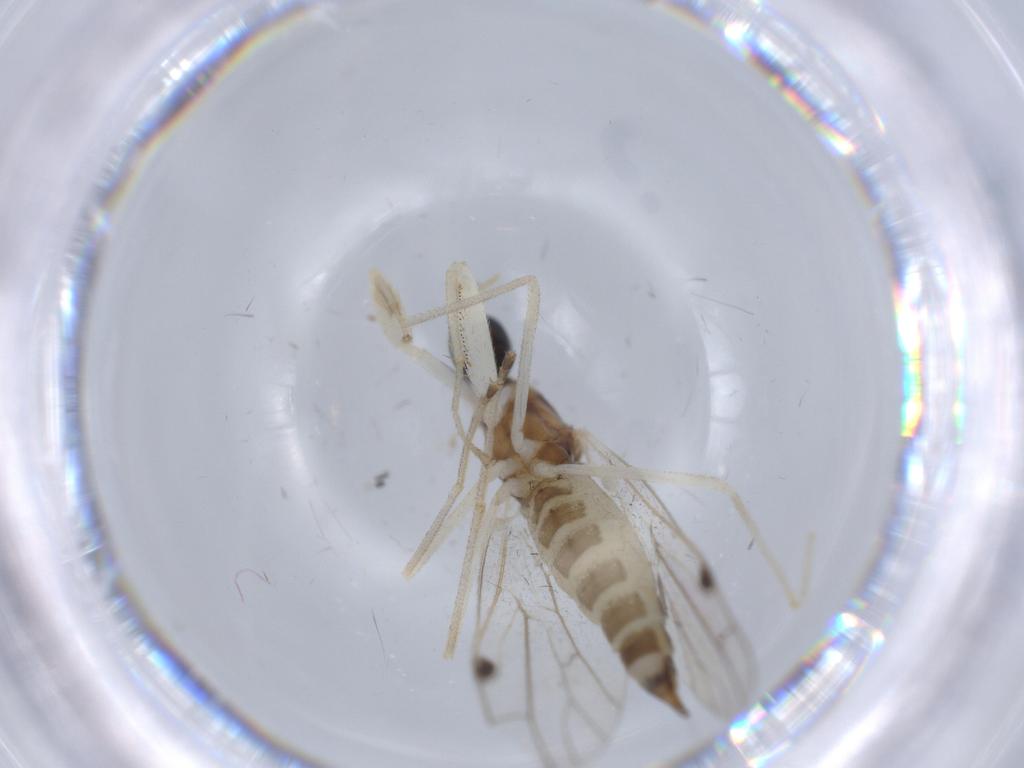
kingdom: Animalia
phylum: Arthropoda
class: Insecta
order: Diptera
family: Empididae
